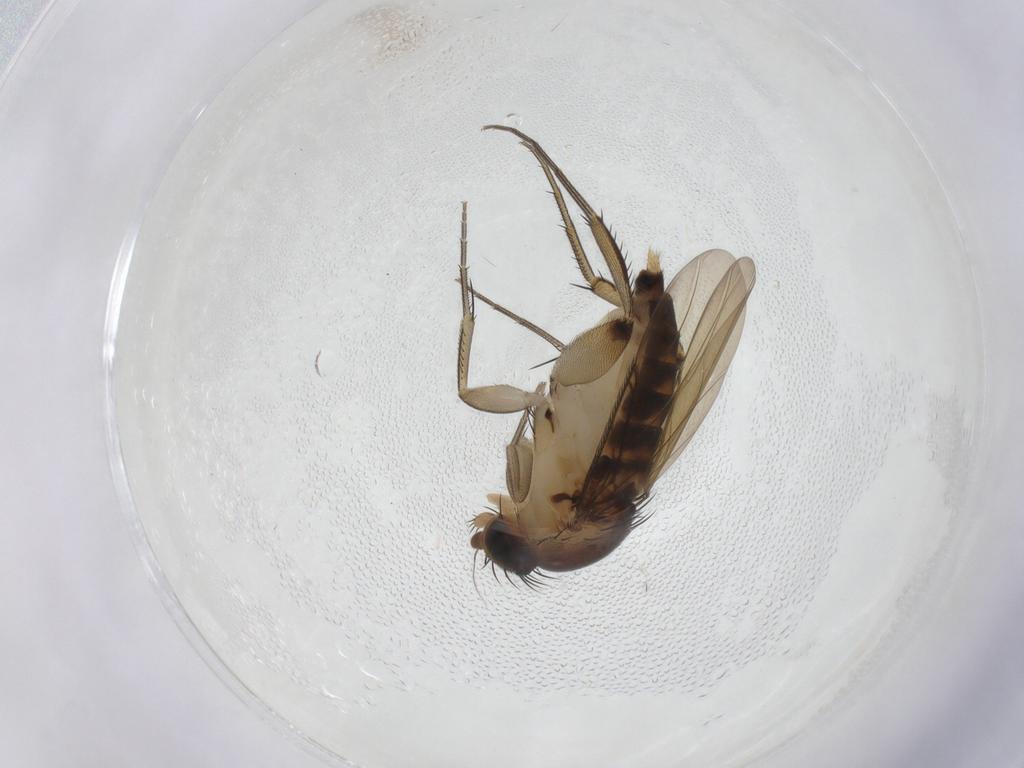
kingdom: Animalia
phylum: Arthropoda
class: Insecta
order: Diptera
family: Phoridae
